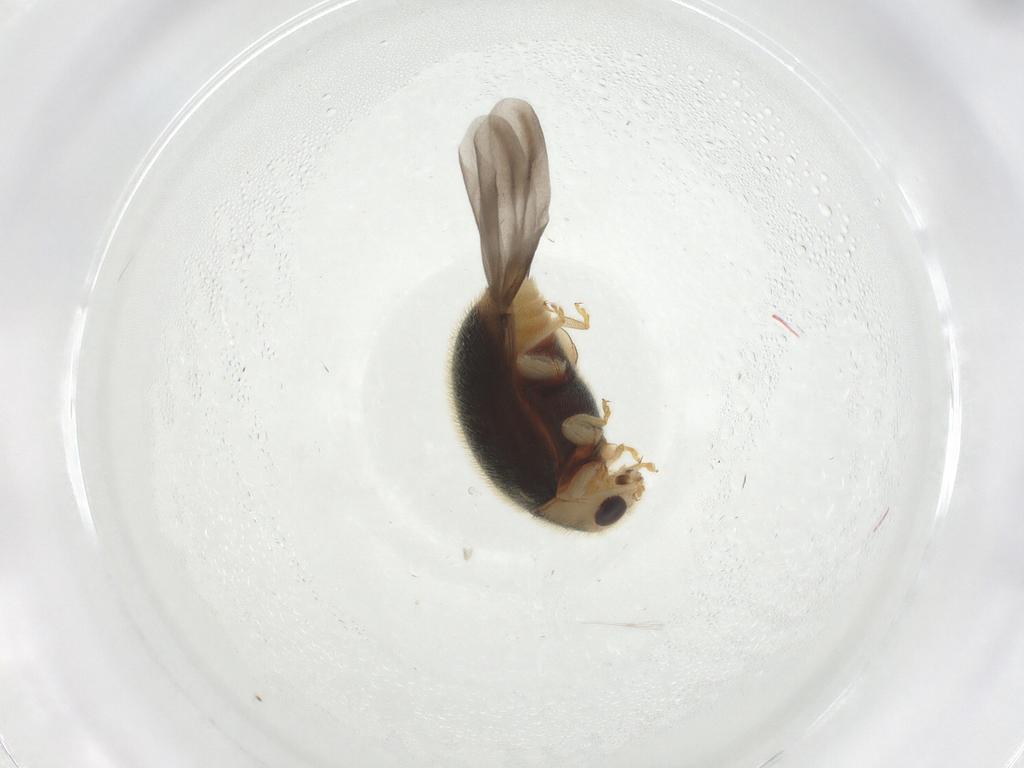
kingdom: Animalia
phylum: Arthropoda
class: Insecta
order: Coleoptera
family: Coccinellidae
